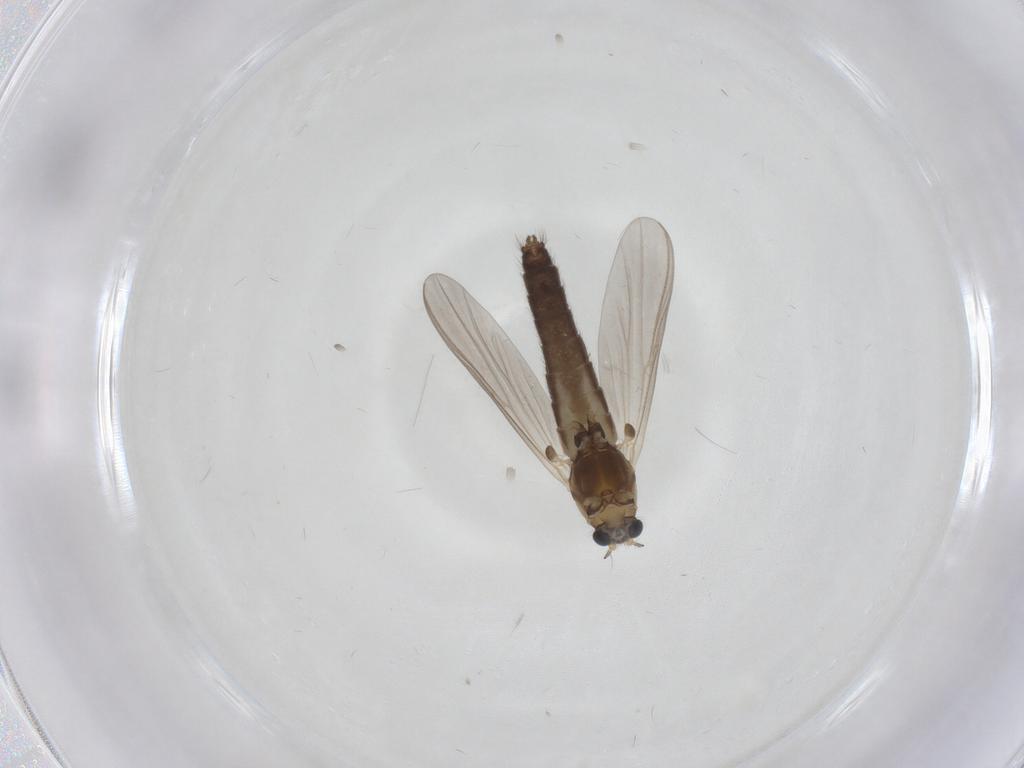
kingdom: Animalia
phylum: Arthropoda
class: Insecta
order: Diptera
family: Chironomidae
